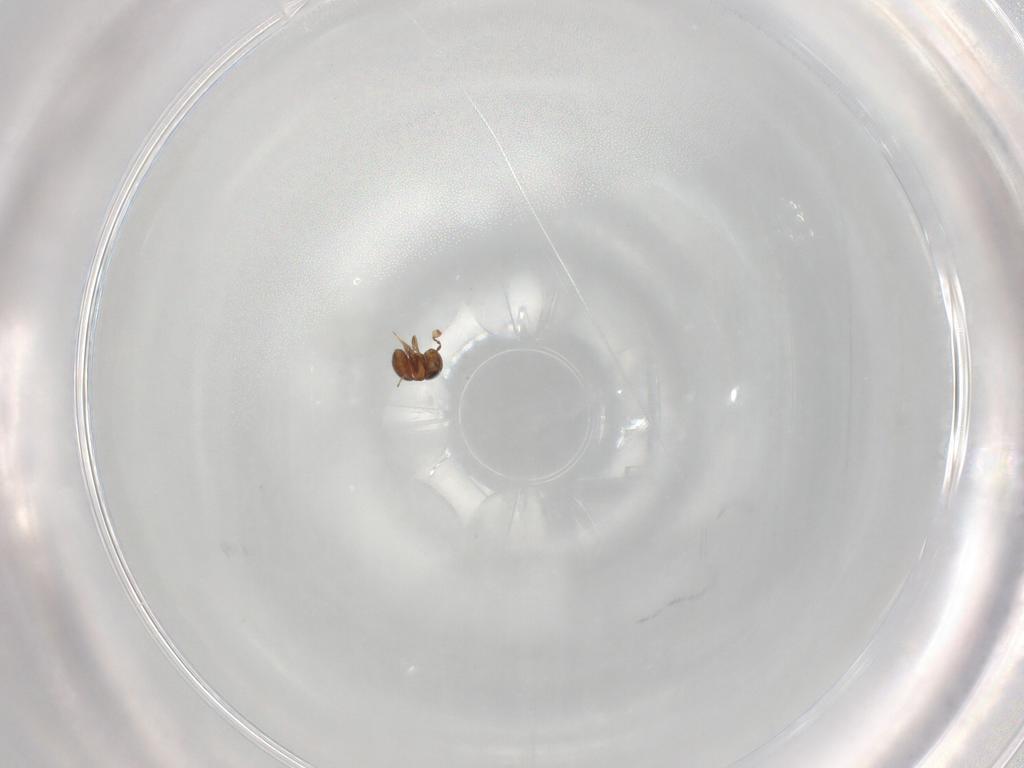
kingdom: Animalia
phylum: Arthropoda
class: Insecta
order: Hymenoptera
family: Scelionidae
